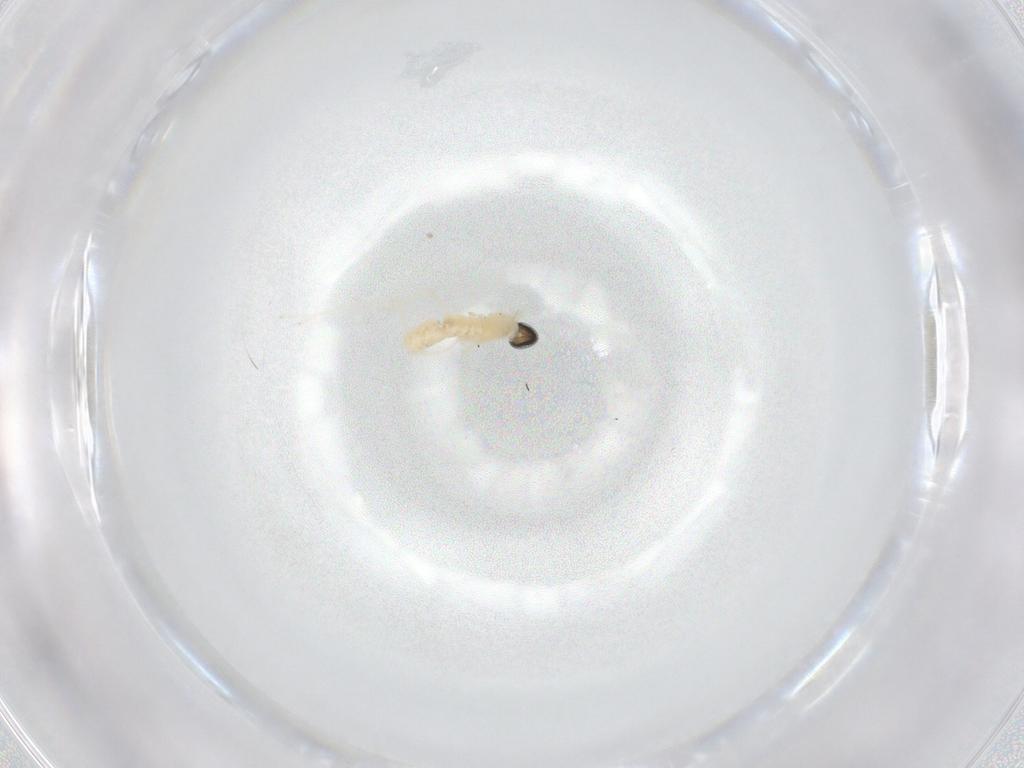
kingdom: Animalia
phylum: Arthropoda
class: Insecta
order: Diptera
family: Cecidomyiidae
